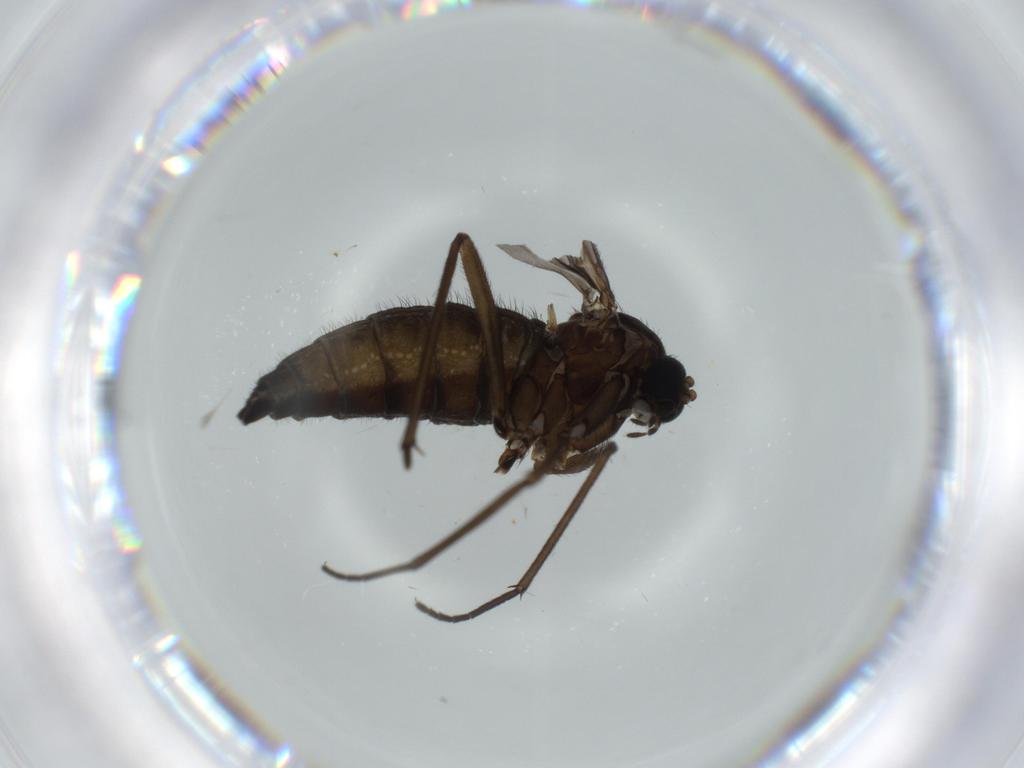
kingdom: Animalia
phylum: Arthropoda
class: Insecta
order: Diptera
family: Sciaridae
